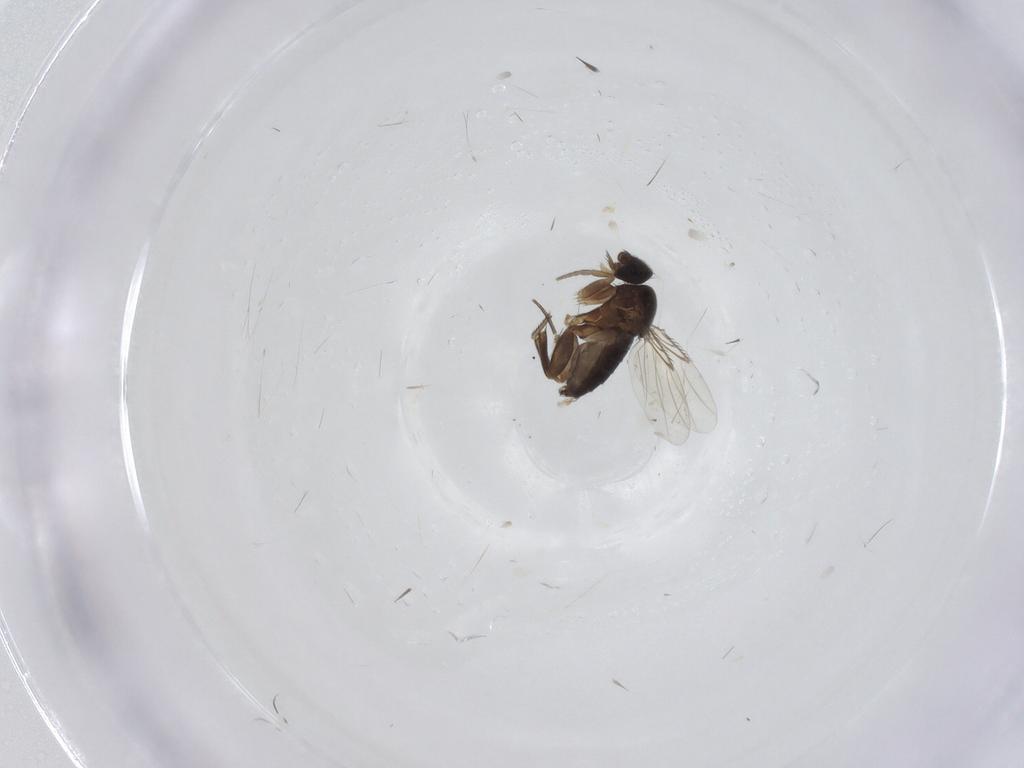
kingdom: Animalia
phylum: Arthropoda
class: Insecta
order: Diptera
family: Phoridae
